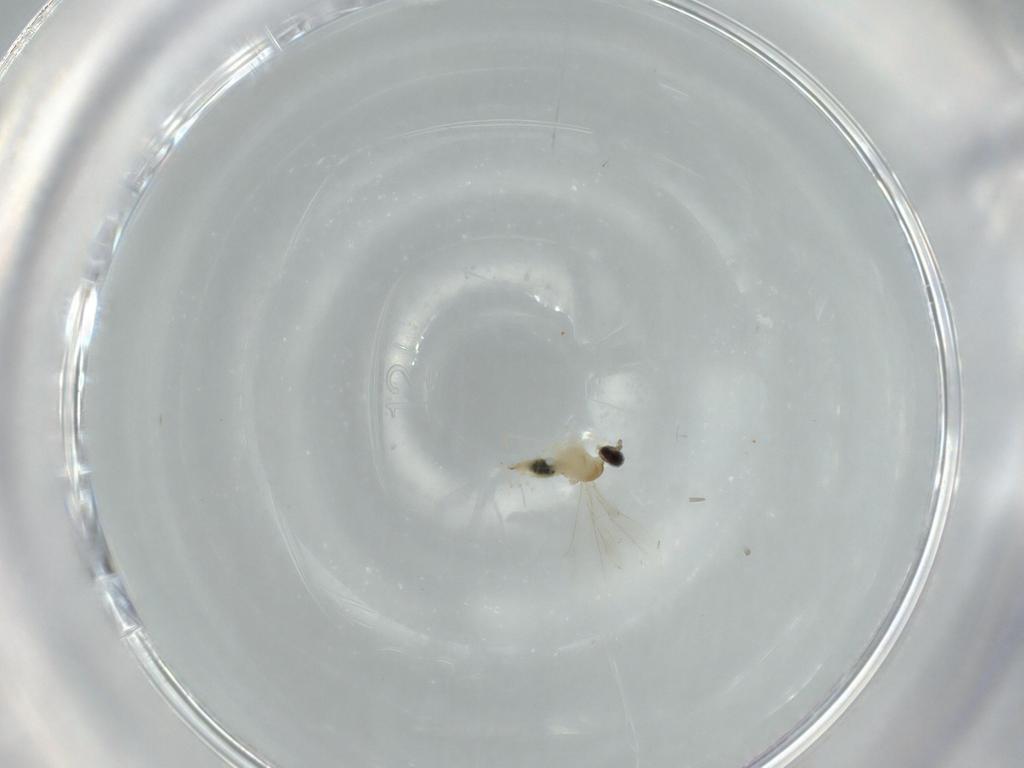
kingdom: Animalia
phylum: Arthropoda
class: Insecta
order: Diptera
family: Cecidomyiidae
